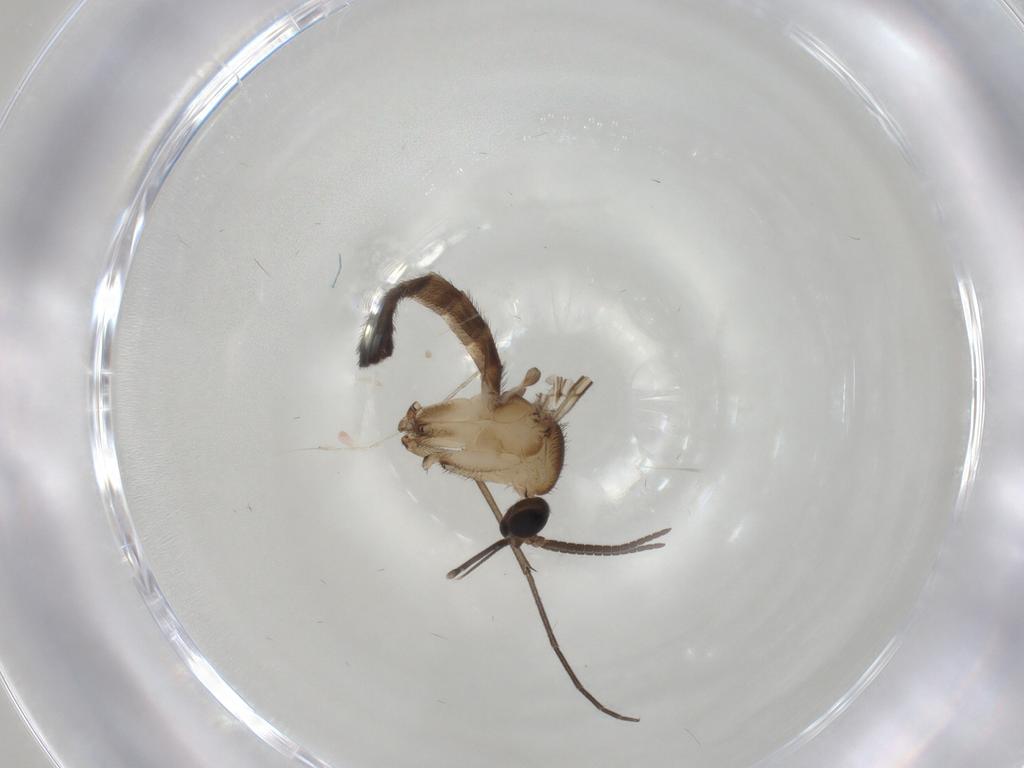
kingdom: Animalia
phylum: Arthropoda
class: Insecta
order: Diptera
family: Keroplatidae
